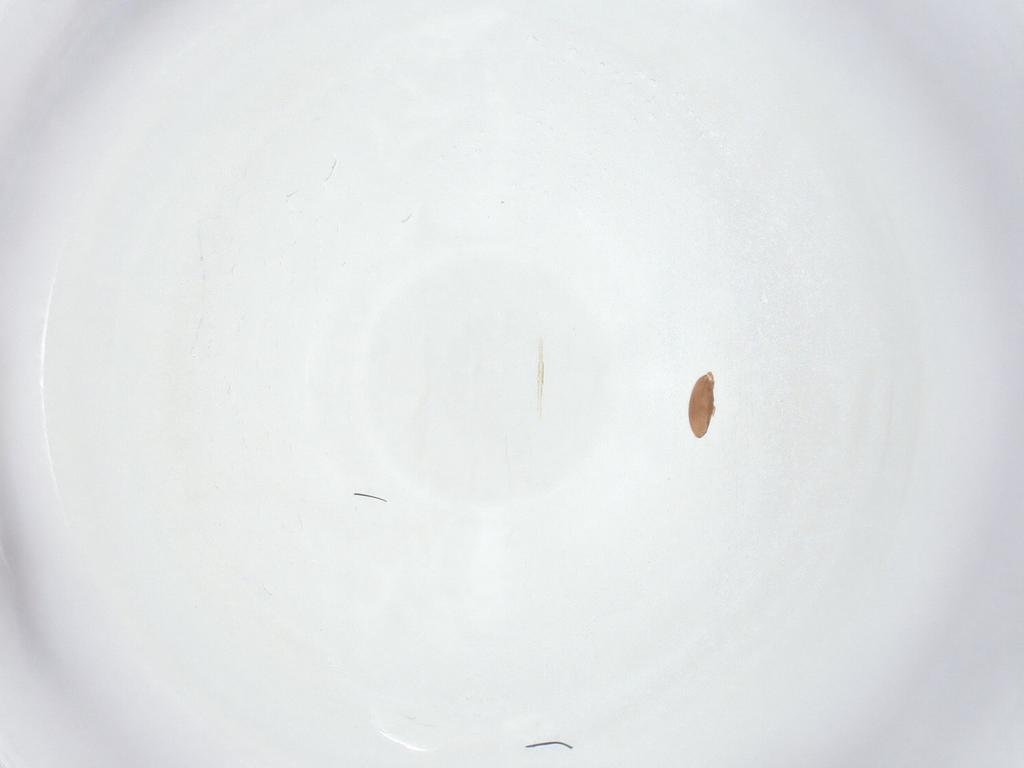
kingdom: Animalia
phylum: Arthropoda
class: Arachnida
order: Mesostigmata
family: Trematuridae
